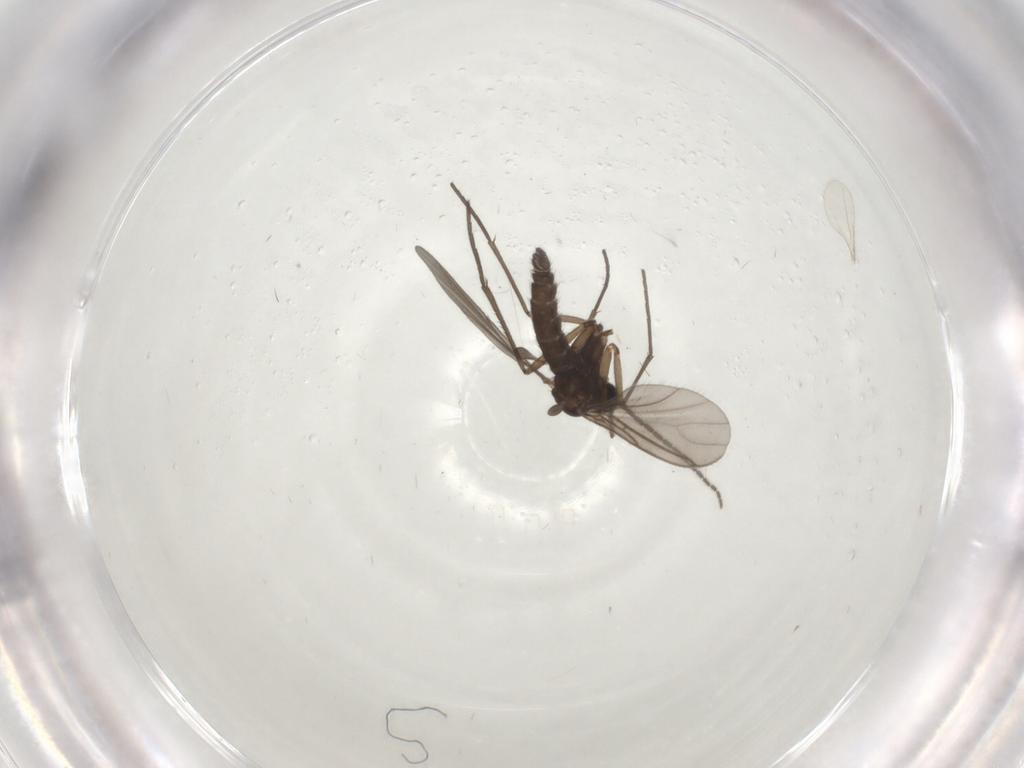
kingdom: Animalia
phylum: Arthropoda
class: Insecta
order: Diptera
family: Sciaridae
